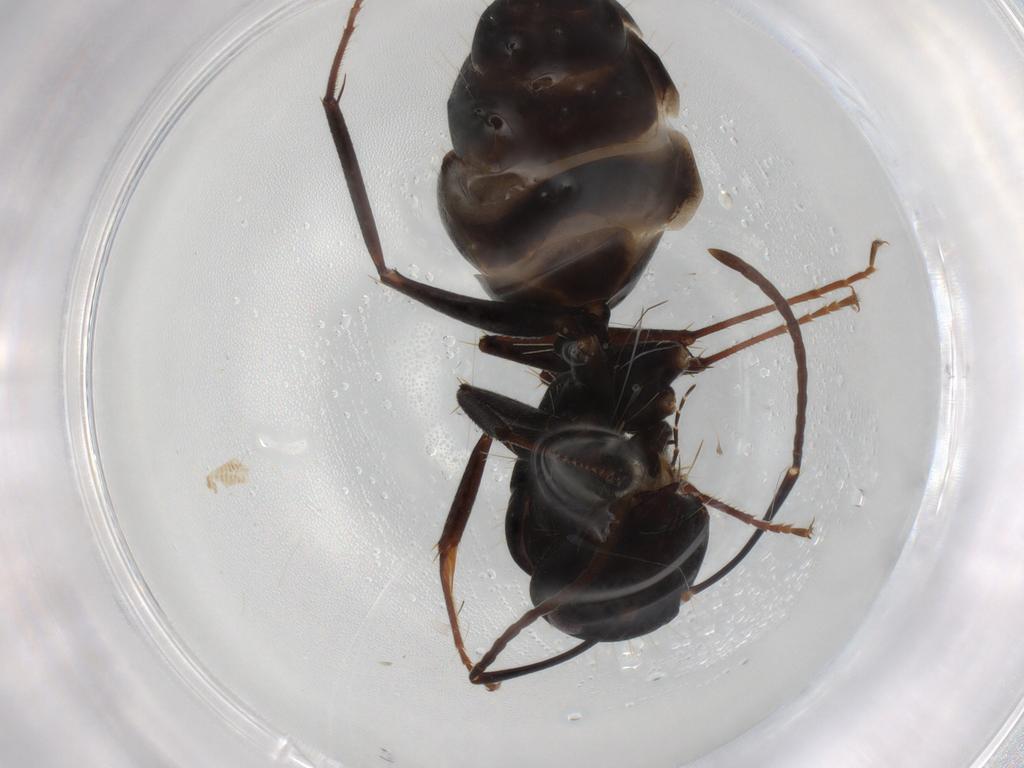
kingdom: Animalia
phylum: Arthropoda
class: Insecta
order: Hymenoptera
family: Formicidae
